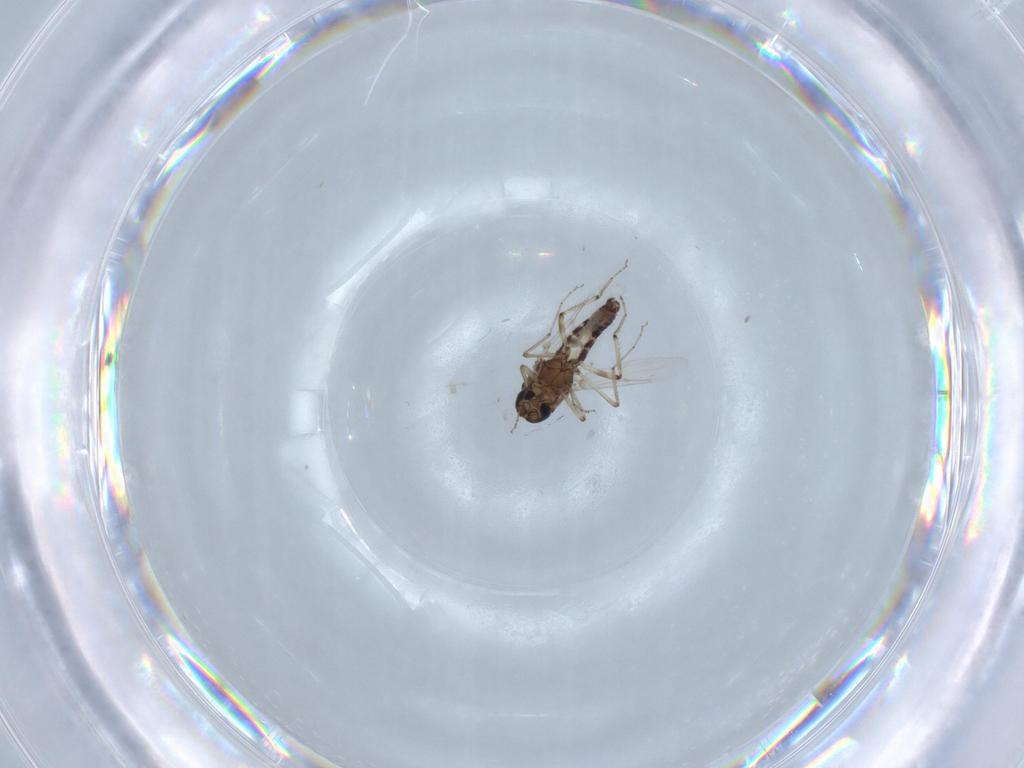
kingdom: Animalia
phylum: Arthropoda
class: Insecta
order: Diptera
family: Ceratopogonidae
